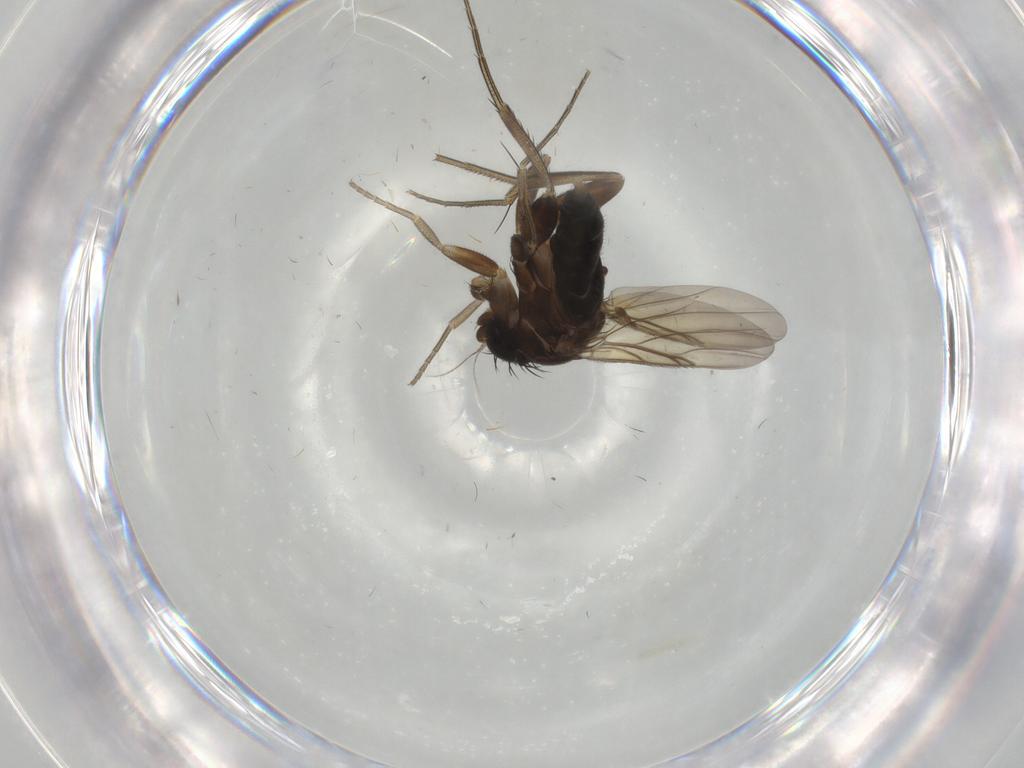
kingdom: Animalia
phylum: Arthropoda
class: Insecta
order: Diptera
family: Phoridae
